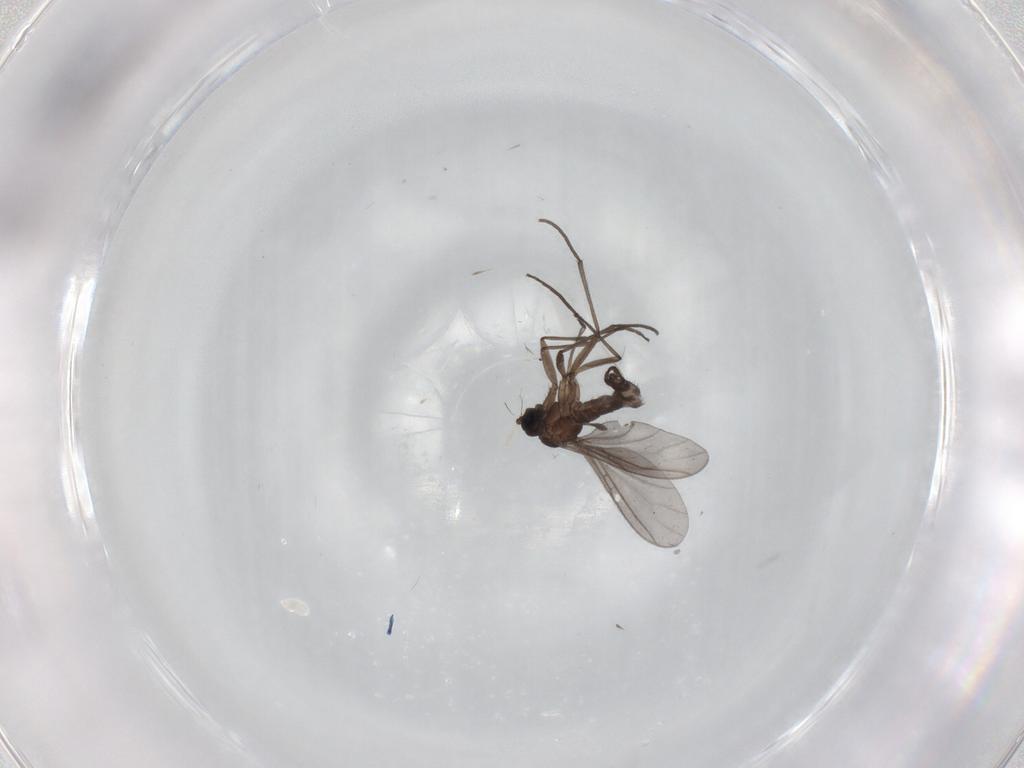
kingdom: Animalia
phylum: Arthropoda
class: Insecta
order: Diptera
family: Sciaridae
